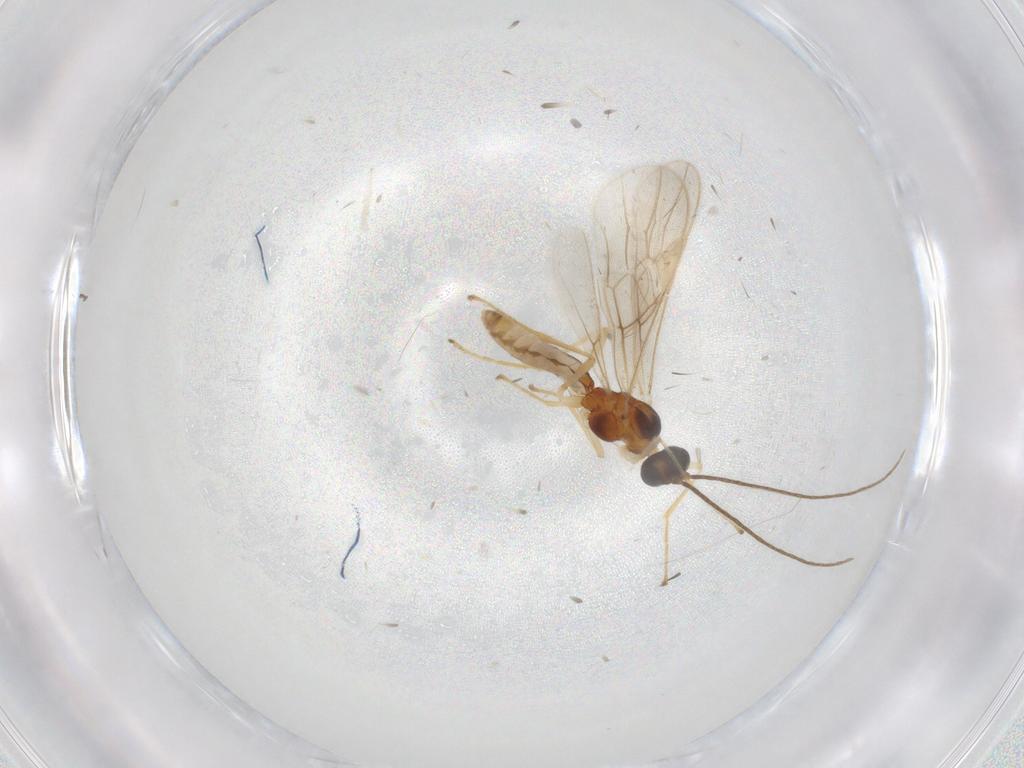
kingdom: Animalia
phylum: Arthropoda
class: Insecta
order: Hymenoptera
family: Braconidae
